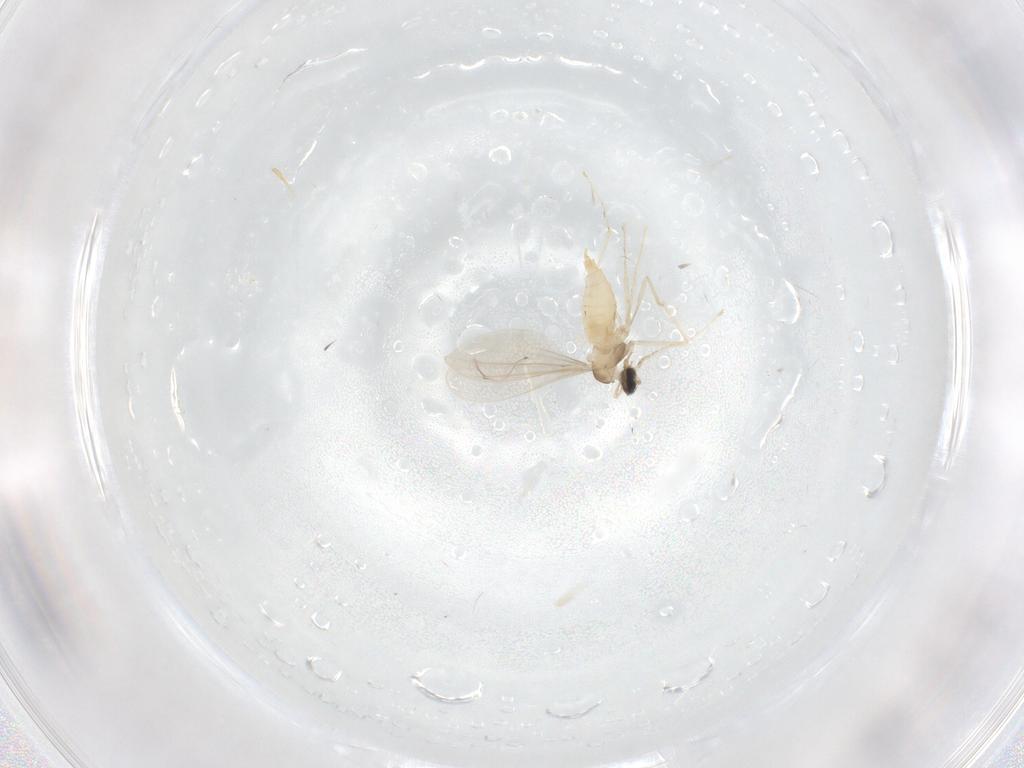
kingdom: Animalia
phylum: Arthropoda
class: Insecta
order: Diptera
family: Cecidomyiidae
